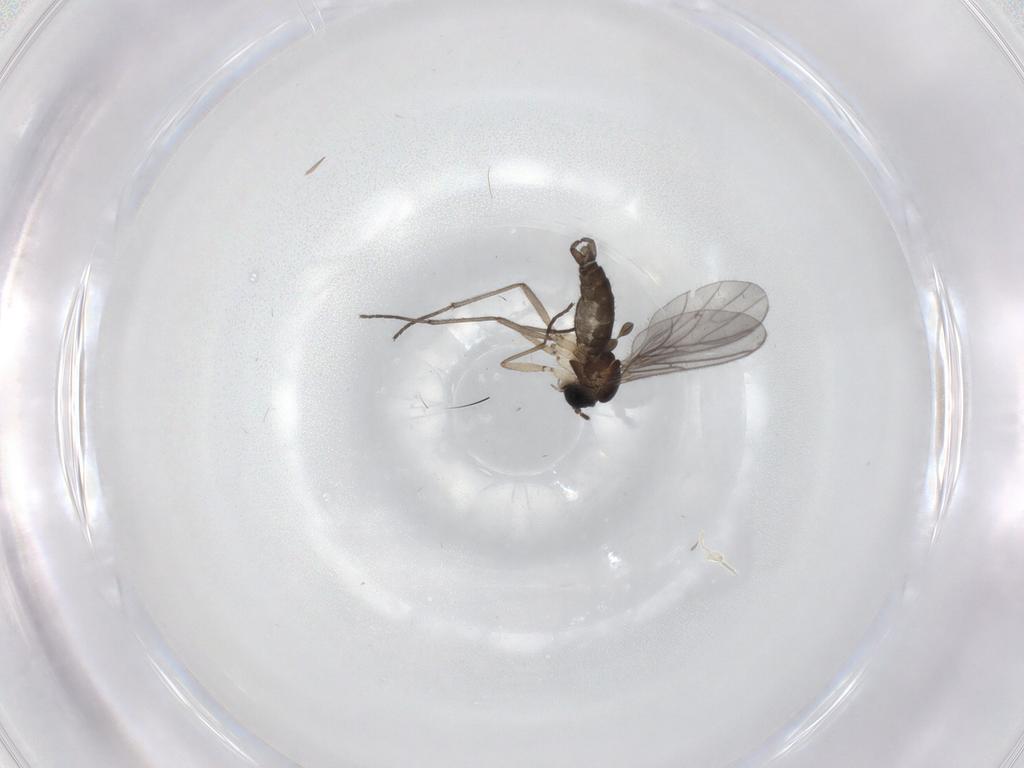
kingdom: Animalia
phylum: Arthropoda
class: Insecta
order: Diptera
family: Sciaridae
